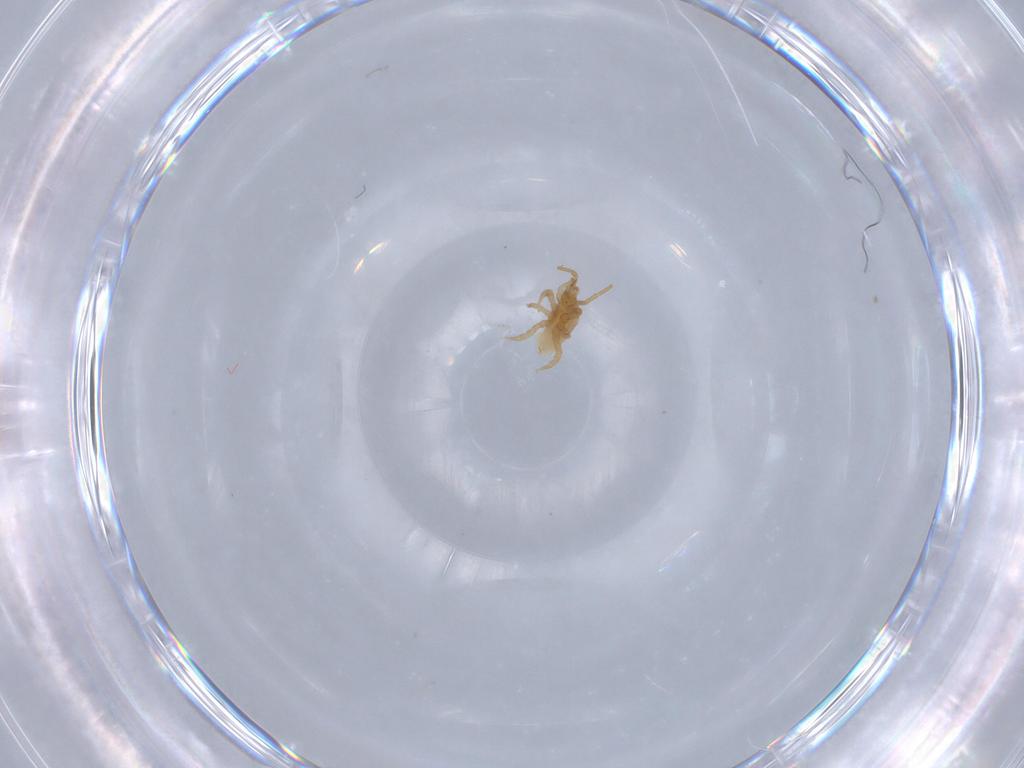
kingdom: Animalia
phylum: Arthropoda
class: Arachnida
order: Mesostigmata
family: Parasitidae
